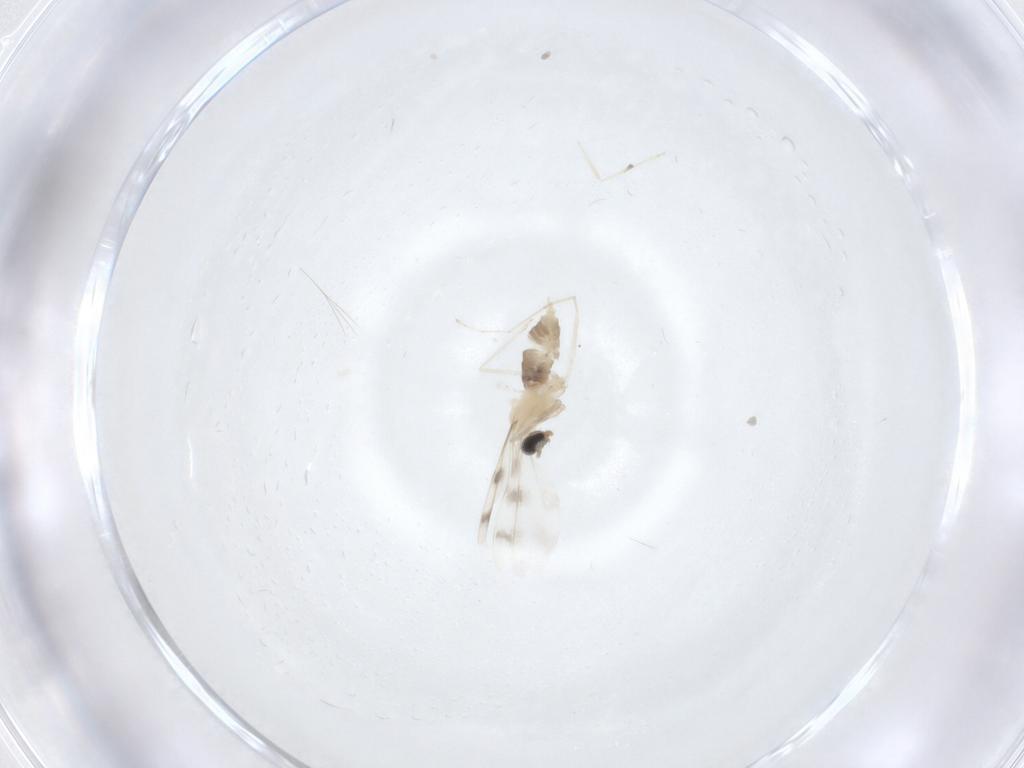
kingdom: Animalia
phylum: Arthropoda
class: Insecta
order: Diptera
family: Cecidomyiidae
